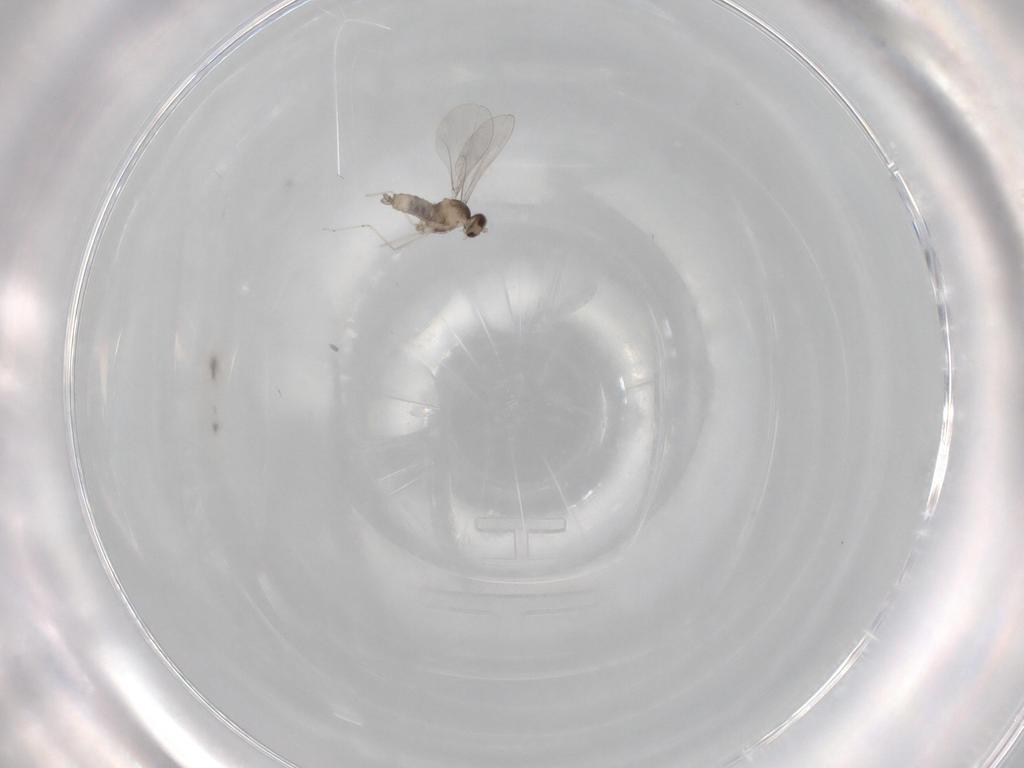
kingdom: Animalia
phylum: Arthropoda
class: Insecta
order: Diptera
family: Cecidomyiidae
